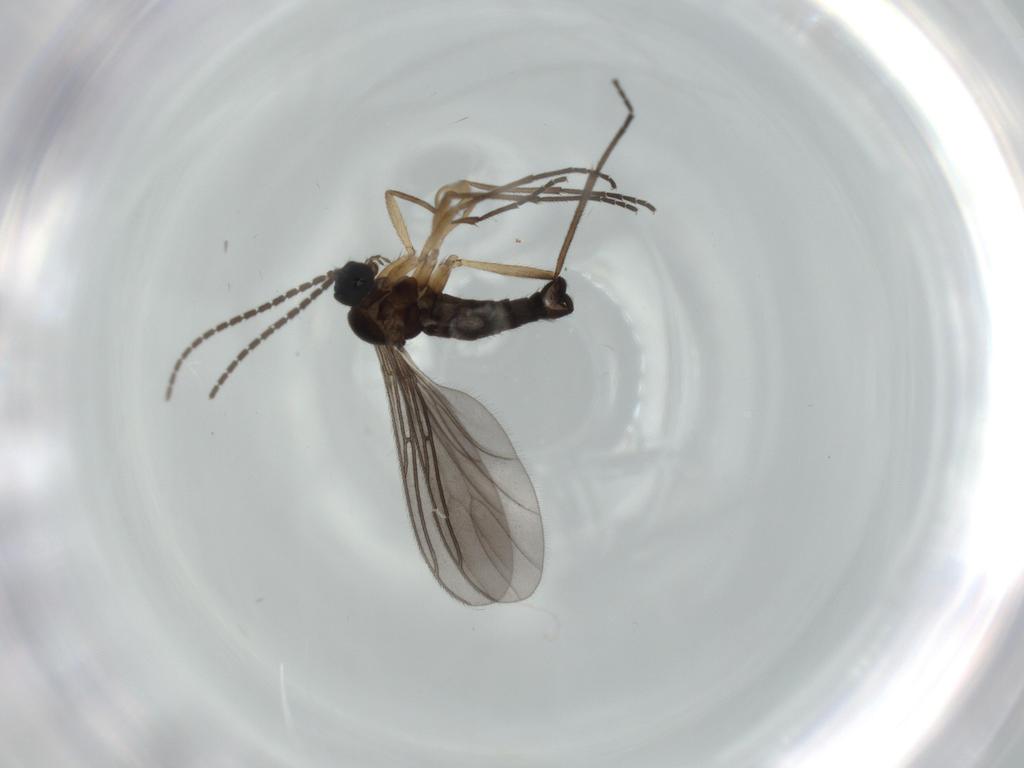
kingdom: Animalia
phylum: Arthropoda
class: Insecta
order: Diptera
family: Sciaridae
